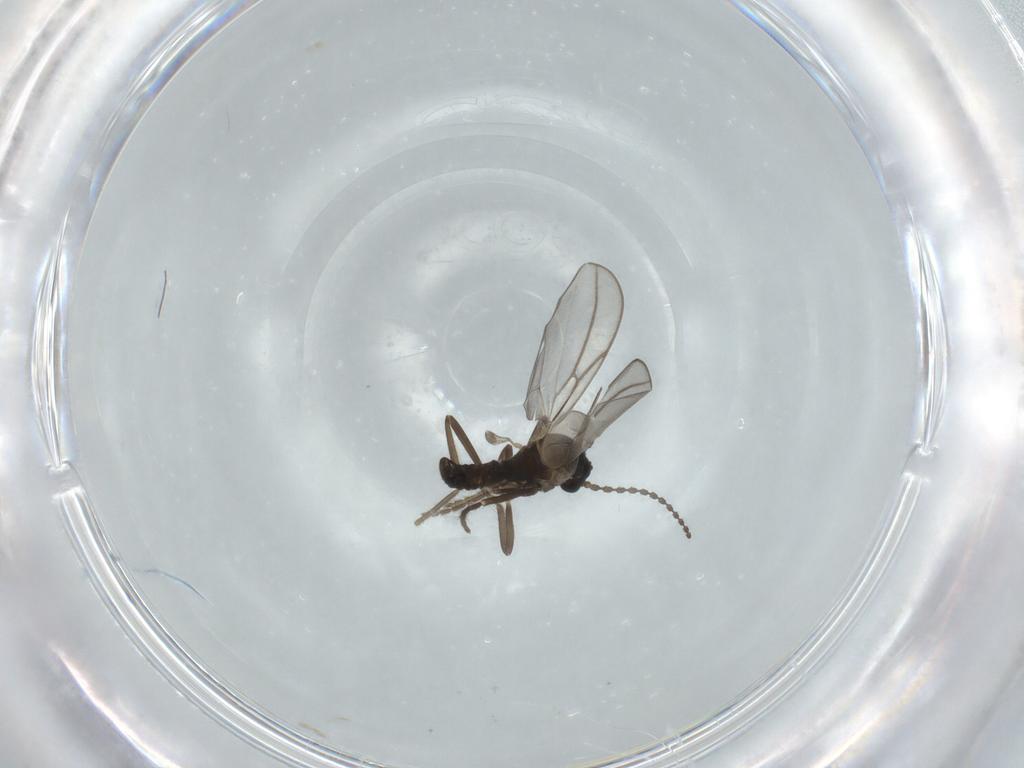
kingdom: Animalia
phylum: Arthropoda
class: Insecta
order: Diptera
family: Cecidomyiidae
